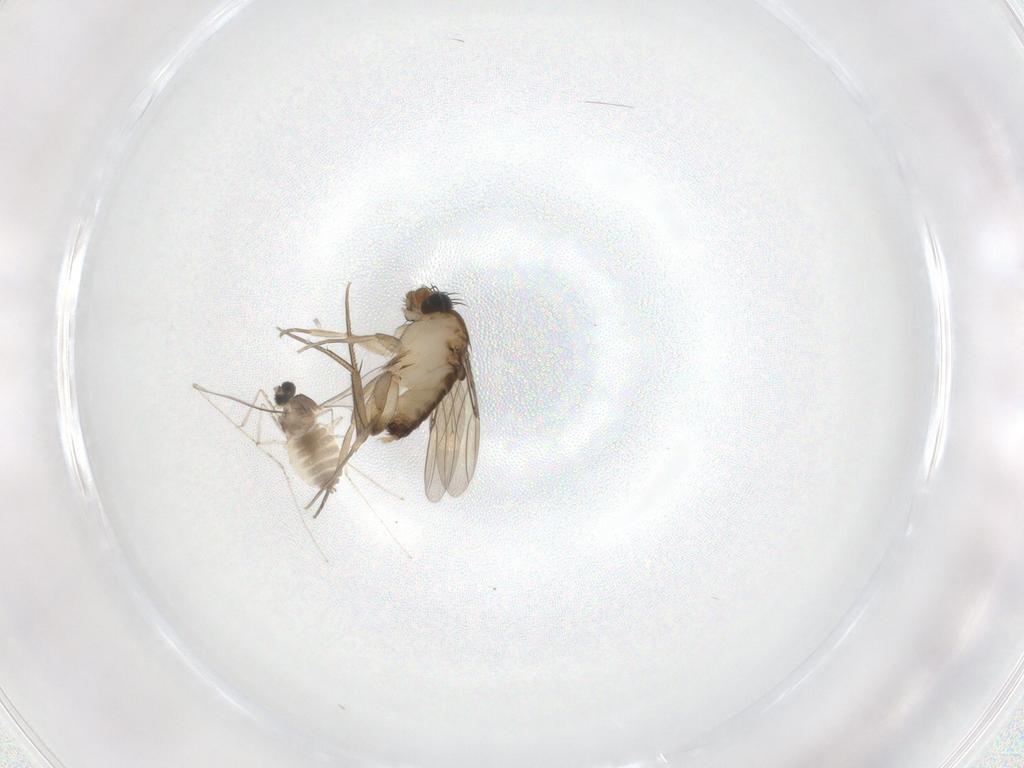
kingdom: Animalia
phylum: Arthropoda
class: Insecta
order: Diptera
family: Phoridae
